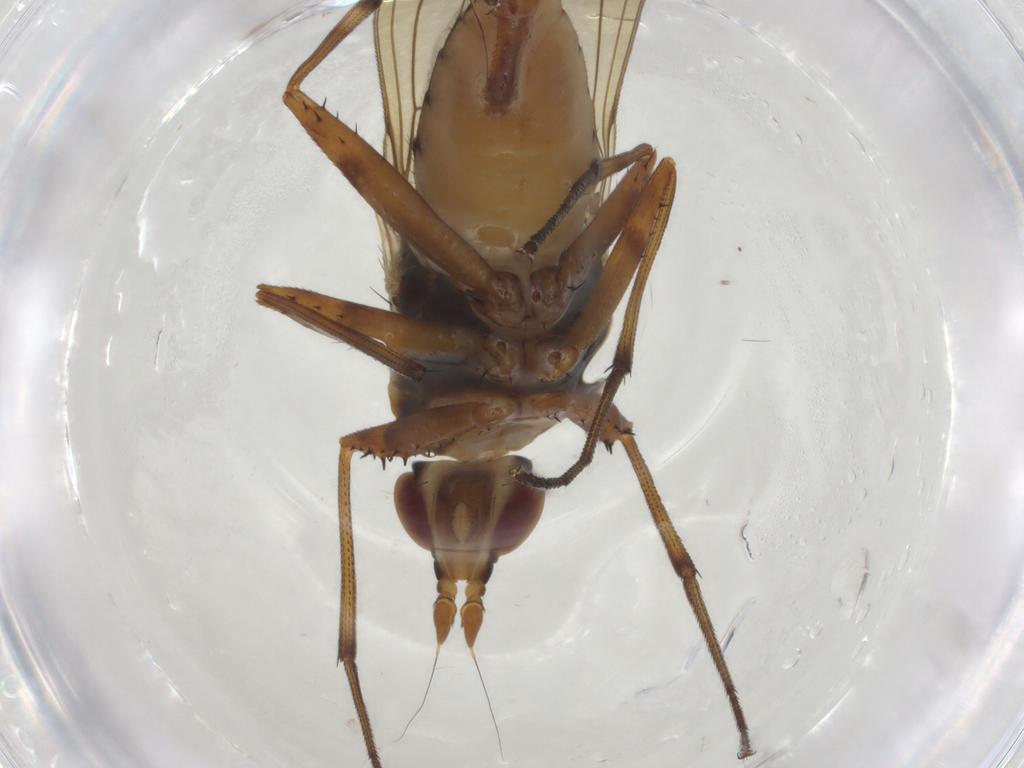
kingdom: Animalia
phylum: Arthropoda
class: Insecta
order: Diptera
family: Neriidae
